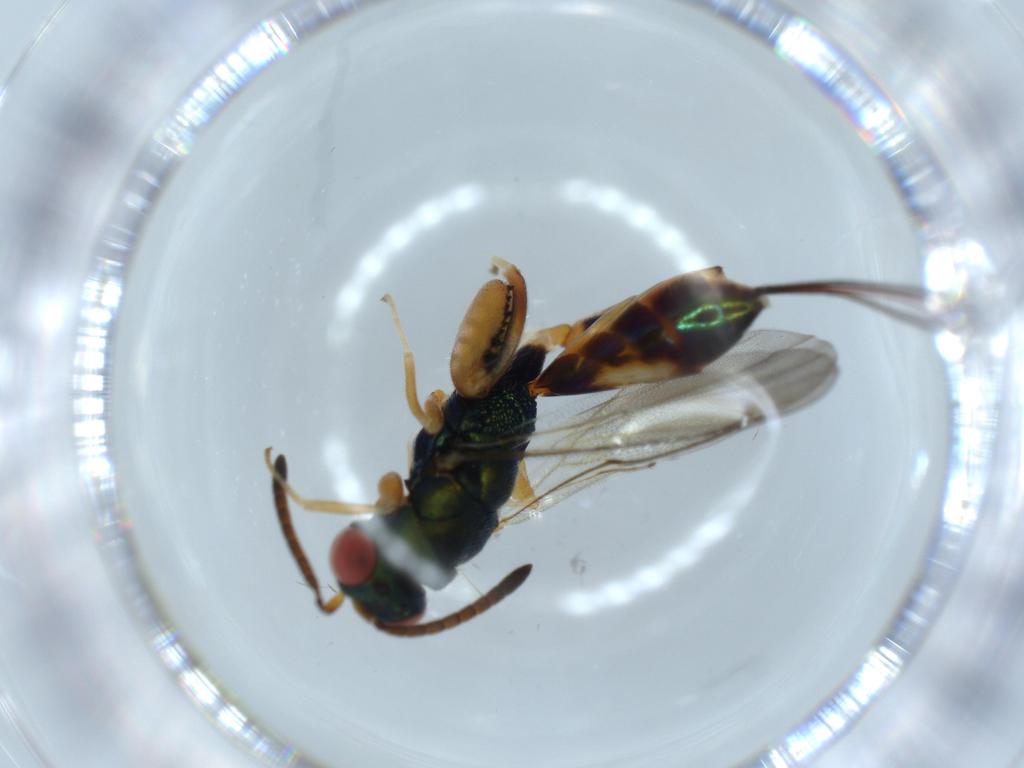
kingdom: Animalia
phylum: Arthropoda
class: Insecta
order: Hymenoptera
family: Torymidae
